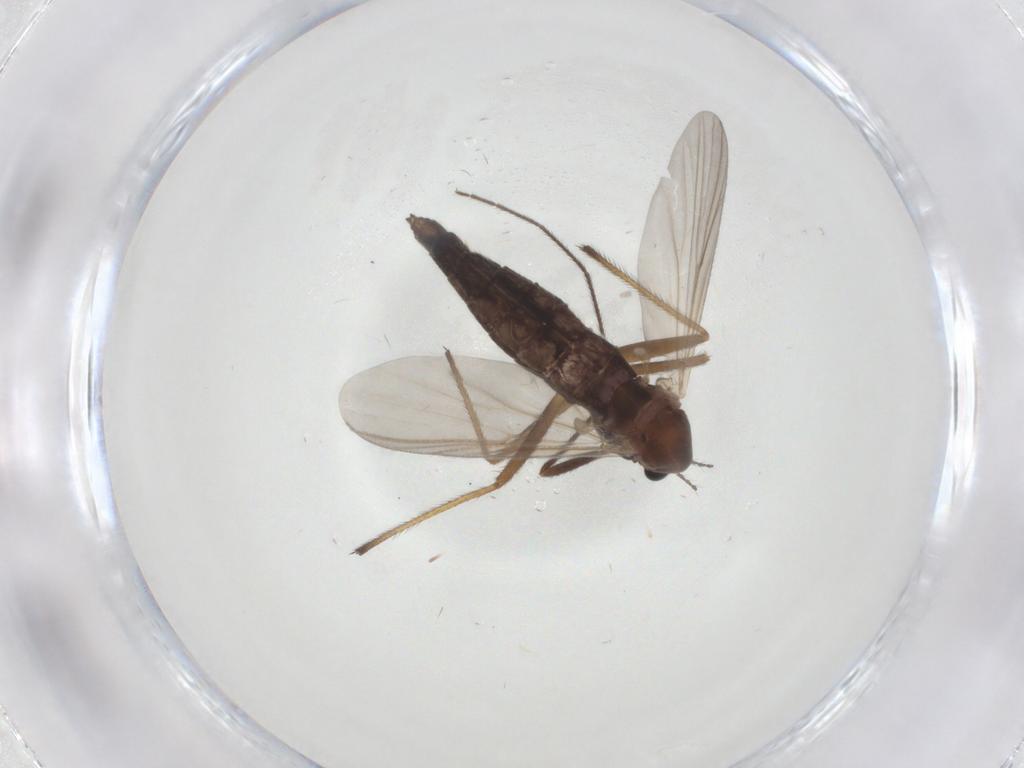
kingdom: Animalia
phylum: Arthropoda
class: Insecta
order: Diptera
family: Chironomidae
